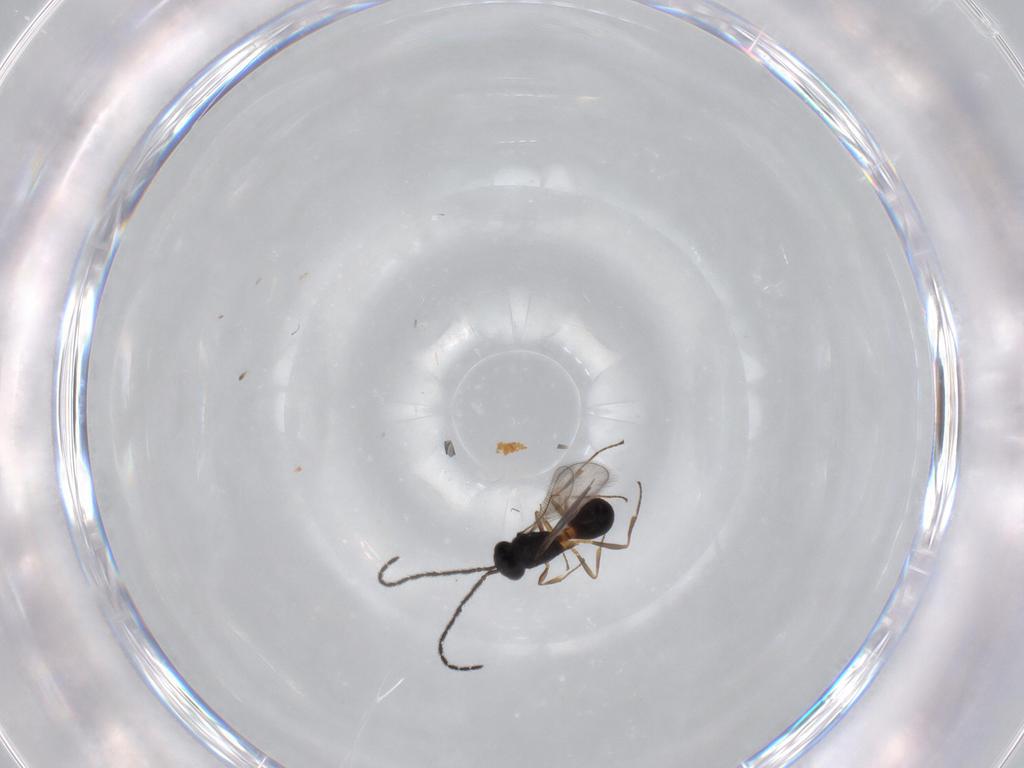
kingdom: Animalia
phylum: Arthropoda
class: Insecta
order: Hymenoptera
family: Scelionidae
